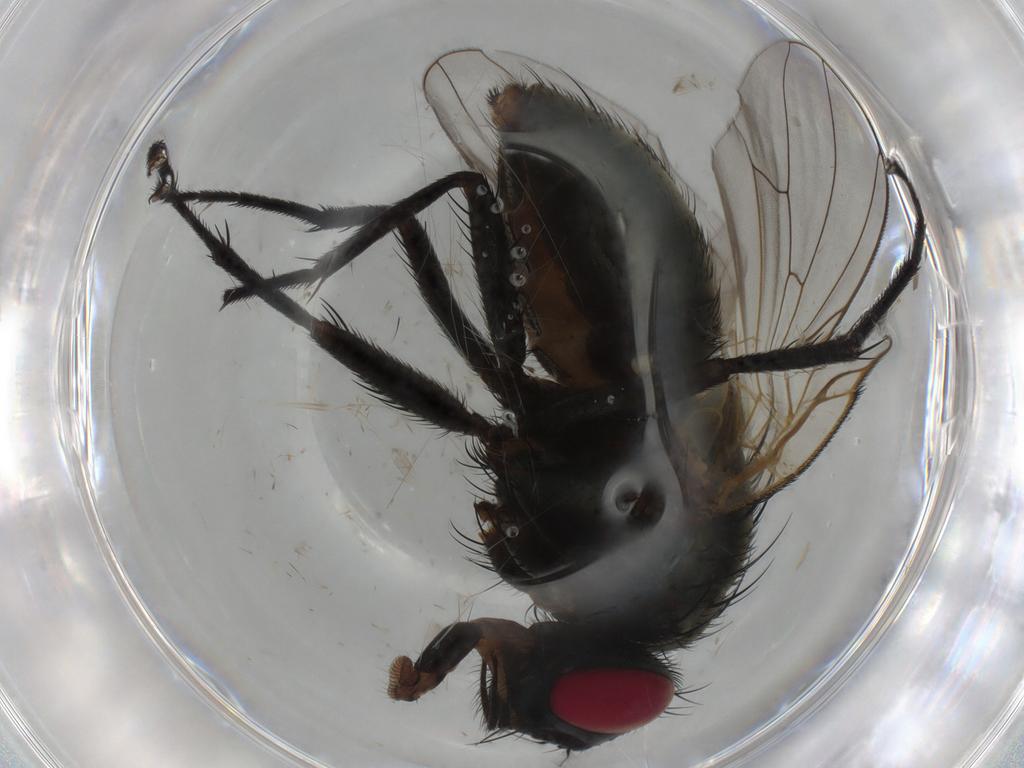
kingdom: Animalia
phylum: Arthropoda
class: Insecta
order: Diptera
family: Muscidae
